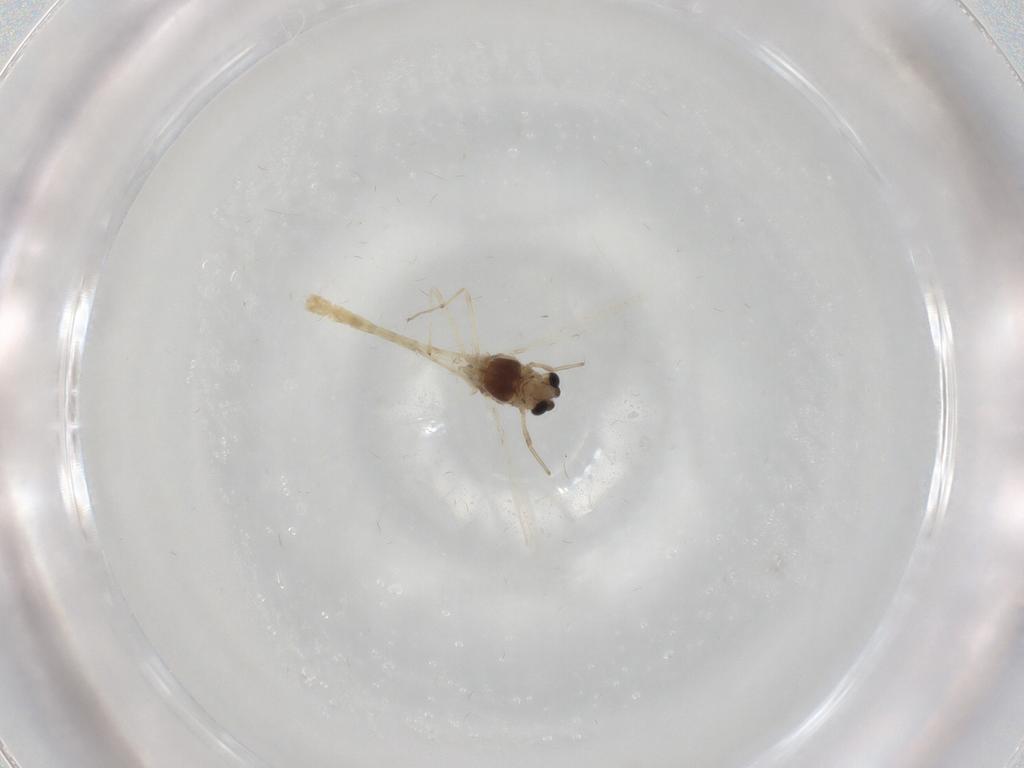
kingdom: Animalia
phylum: Arthropoda
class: Insecta
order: Diptera
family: Chironomidae
